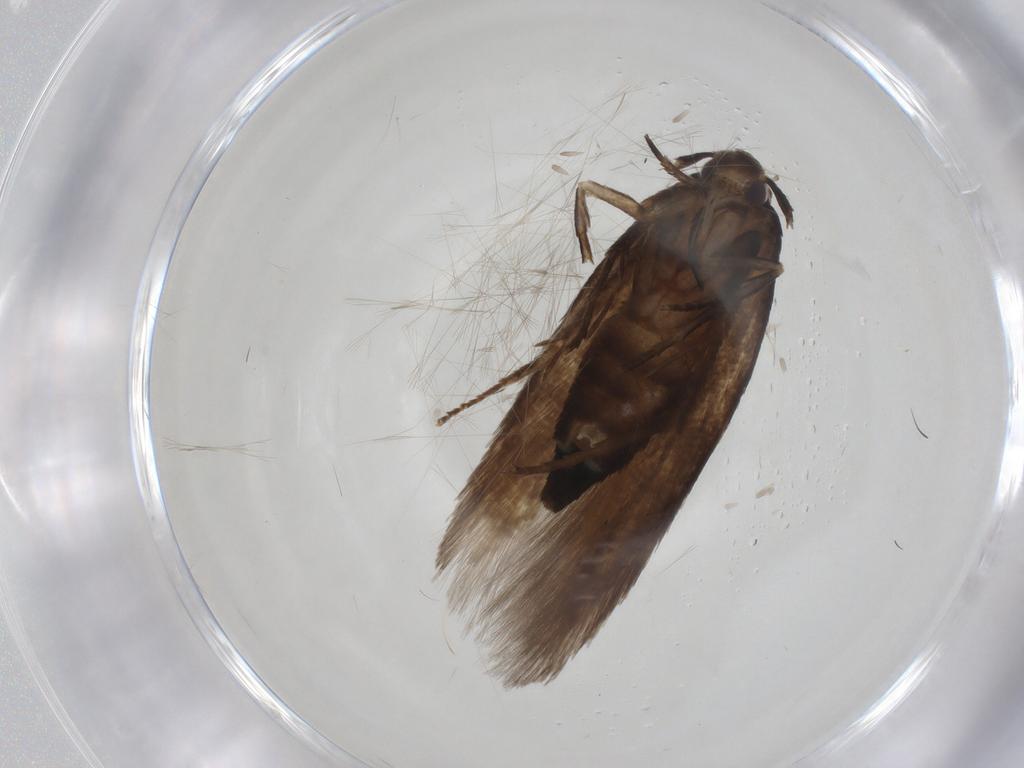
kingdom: Animalia
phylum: Arthropoda
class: Insecta
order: Lepidoptera
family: Cosmopterigidae
